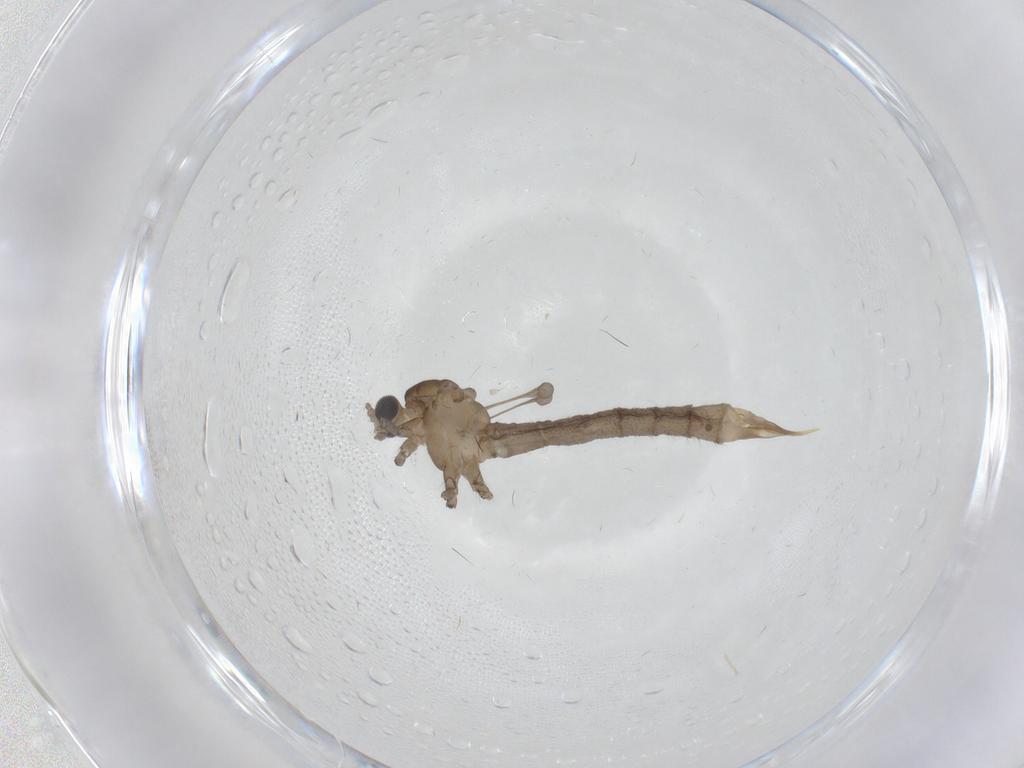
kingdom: Animalia
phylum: Arthropoda
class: Insecta
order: Diptera
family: Limoniidae
